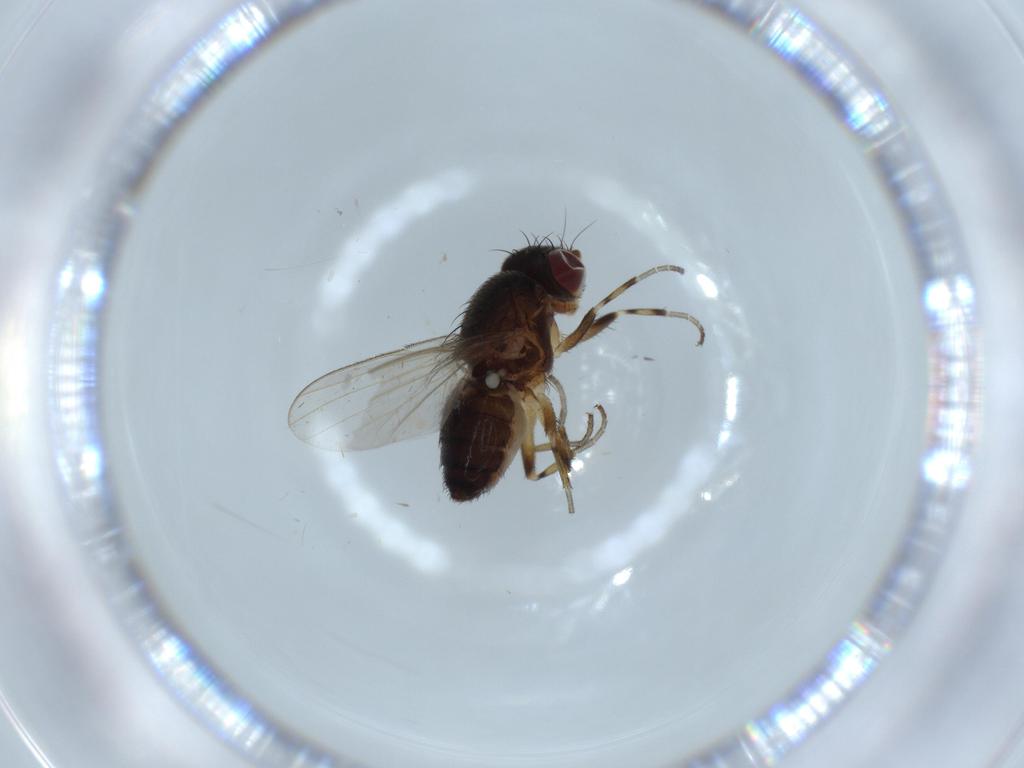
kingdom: Animalia
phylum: Arthropoda
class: Insecta
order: Diptera
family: Heleomyzidae
